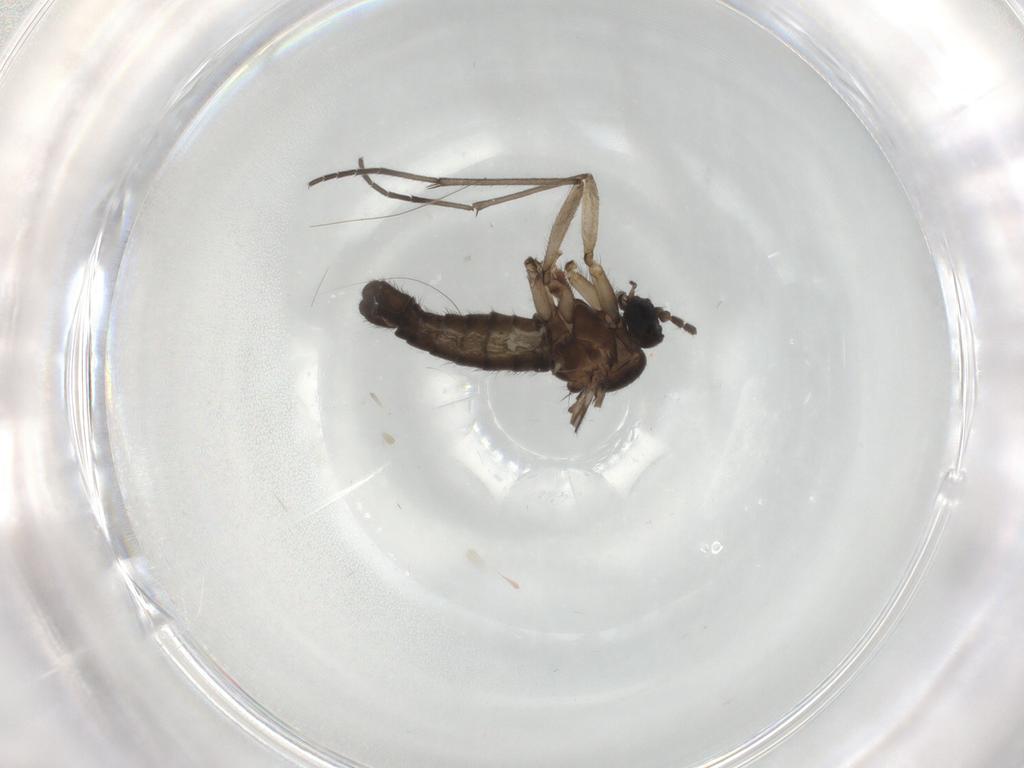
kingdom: Animalia
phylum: Arthropoda
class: Insecta
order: Diptera
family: Sciaridae
